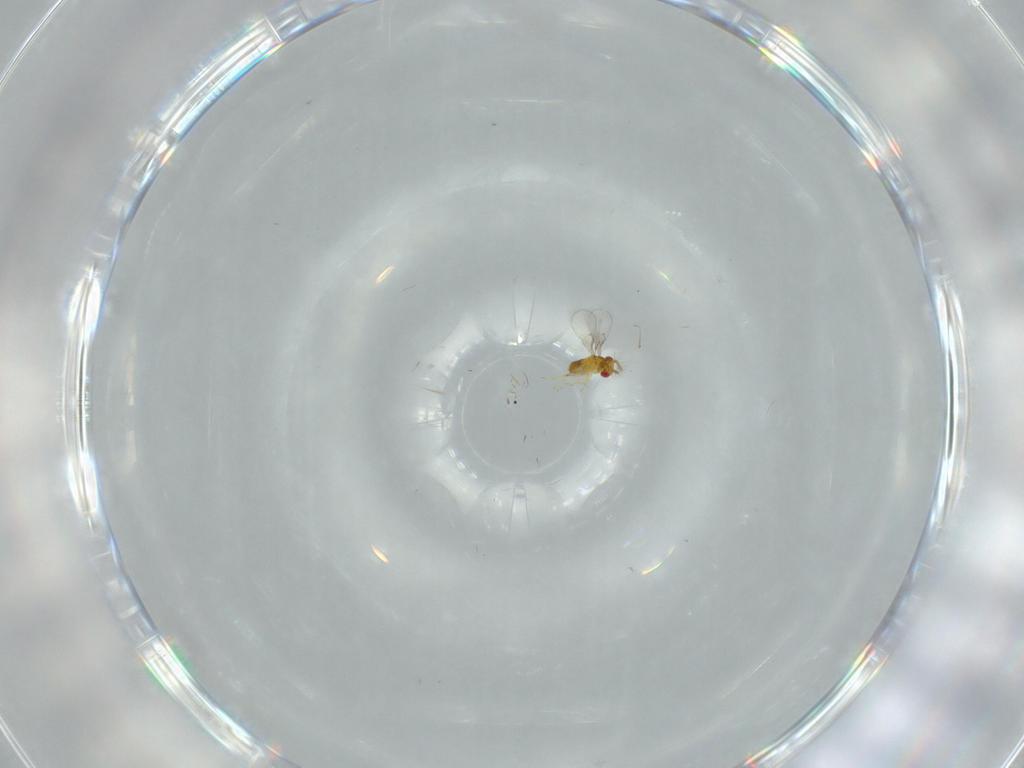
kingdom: Animalia
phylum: Arthropoda
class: Insecta
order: Hymenoptera
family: Trichogrammatidae
